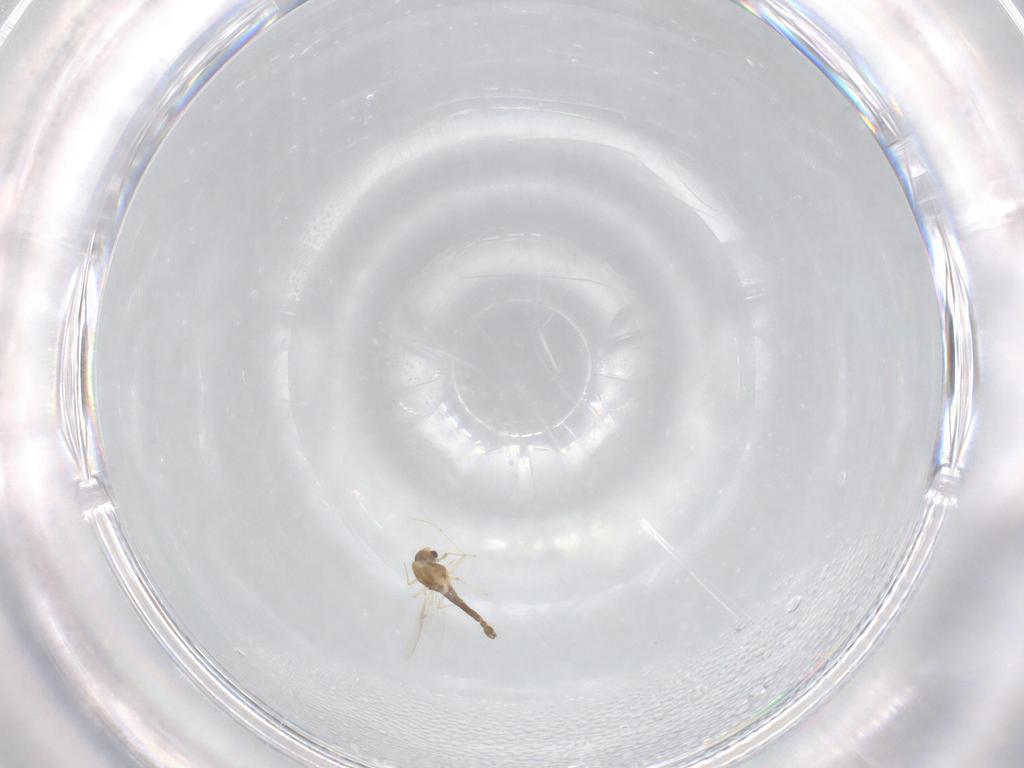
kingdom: Animalia
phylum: Arthropoda
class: Insecta
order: Diptera
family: Chironomidae
